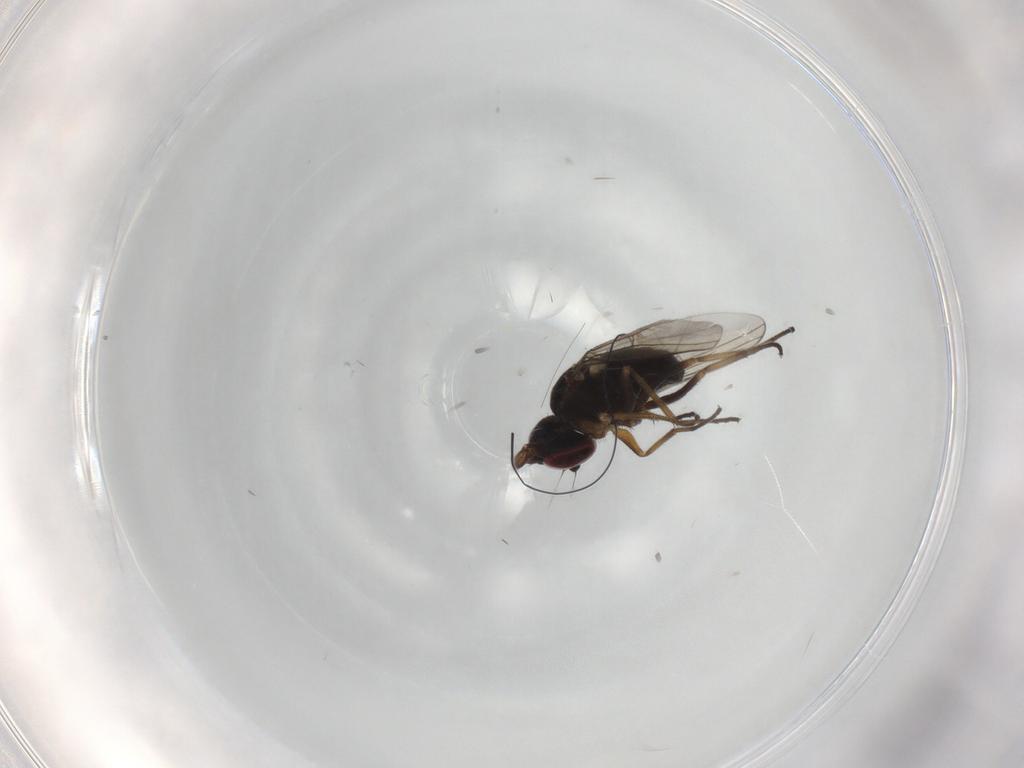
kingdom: Animalia
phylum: Arthropoda
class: Insecta
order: Diptera
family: Dolichopodidae
